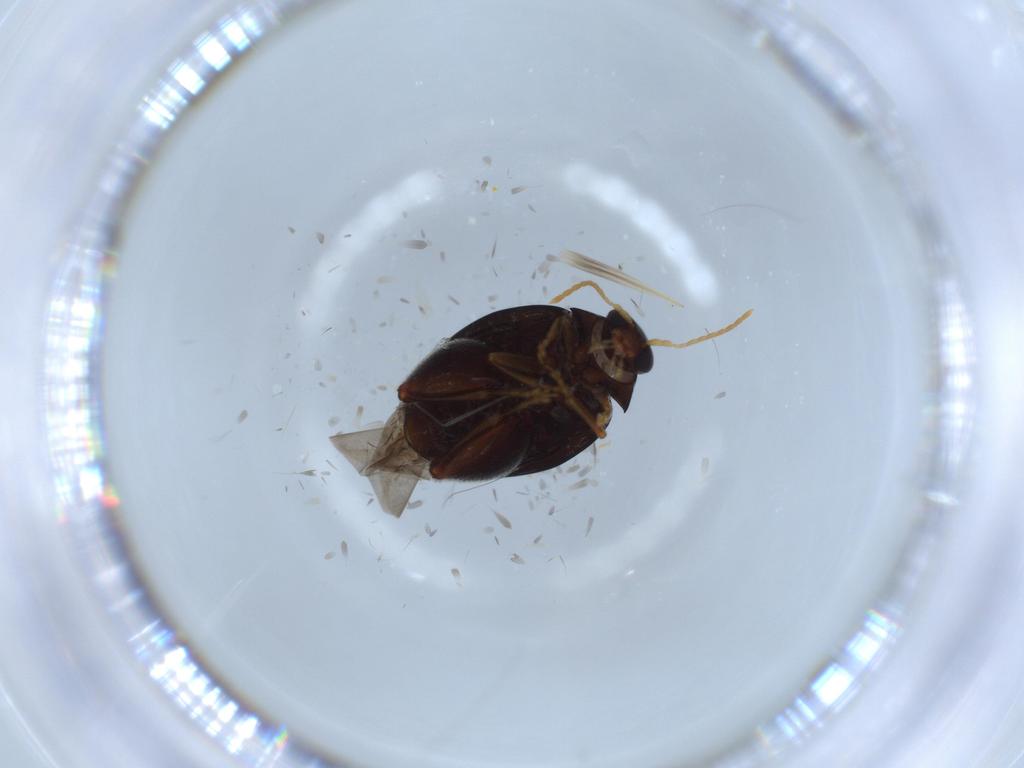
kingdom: Animalia
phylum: Arthropoda
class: Insecta
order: Coleoptera
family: Chrysomelidae
